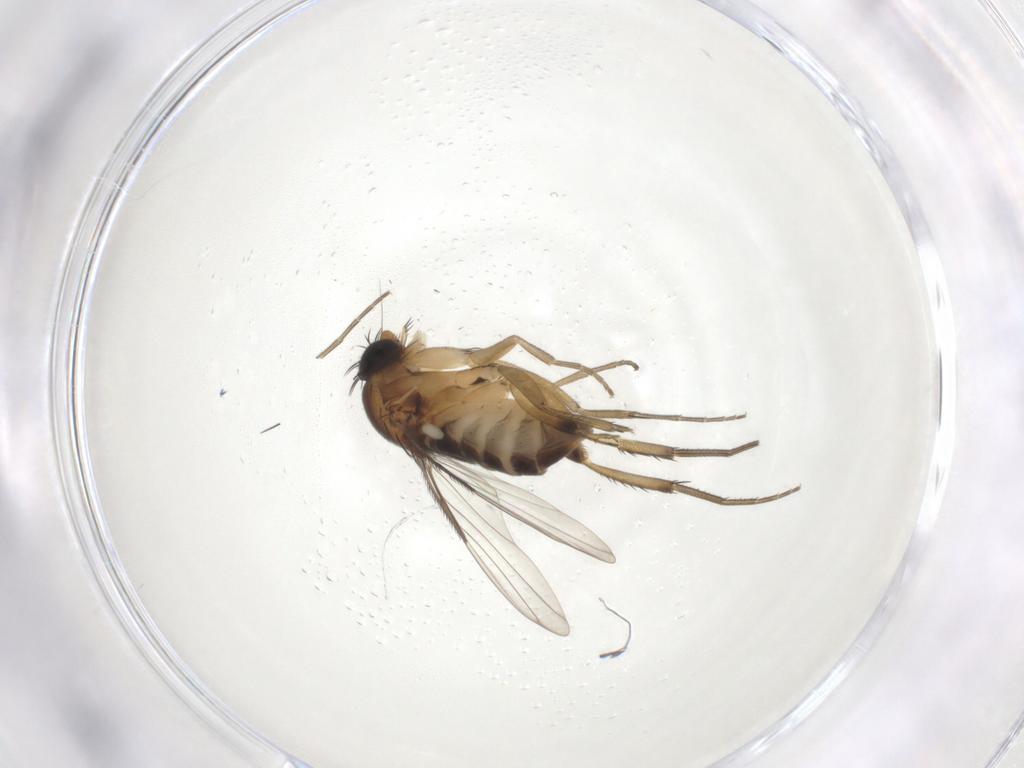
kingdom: Animalia
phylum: Arthropoda
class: Insecta
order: Diptera
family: Phoridae
